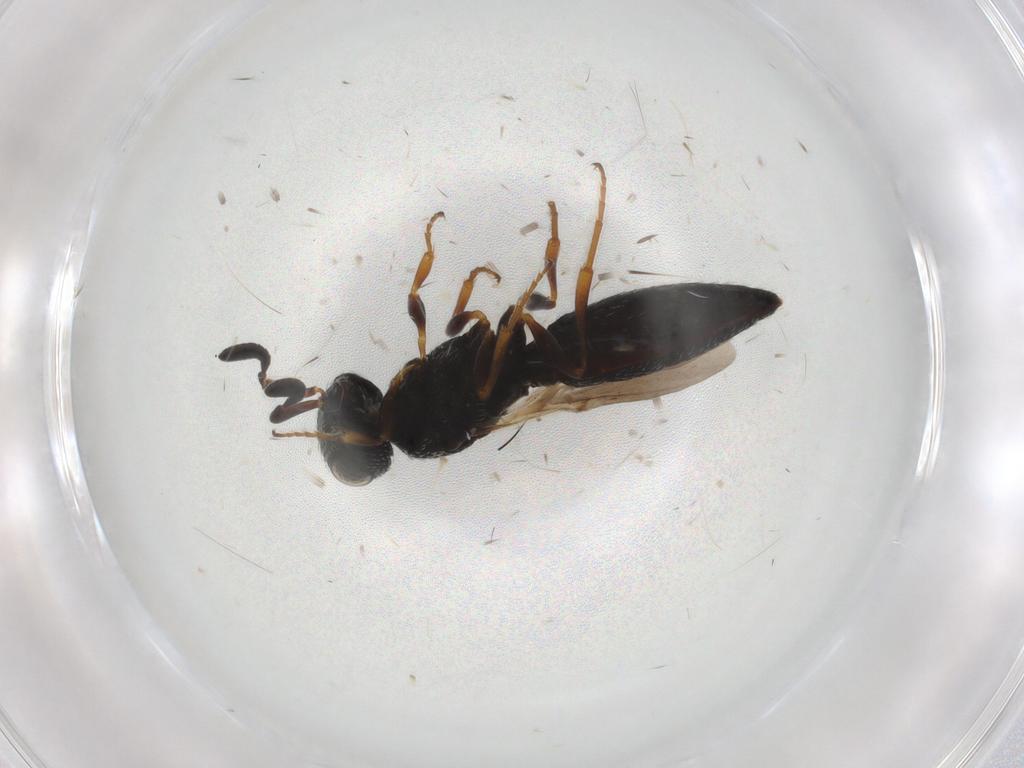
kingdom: Animalia
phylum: Arthropoda
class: Insecta
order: Hymenoptera
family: Scelionidae
